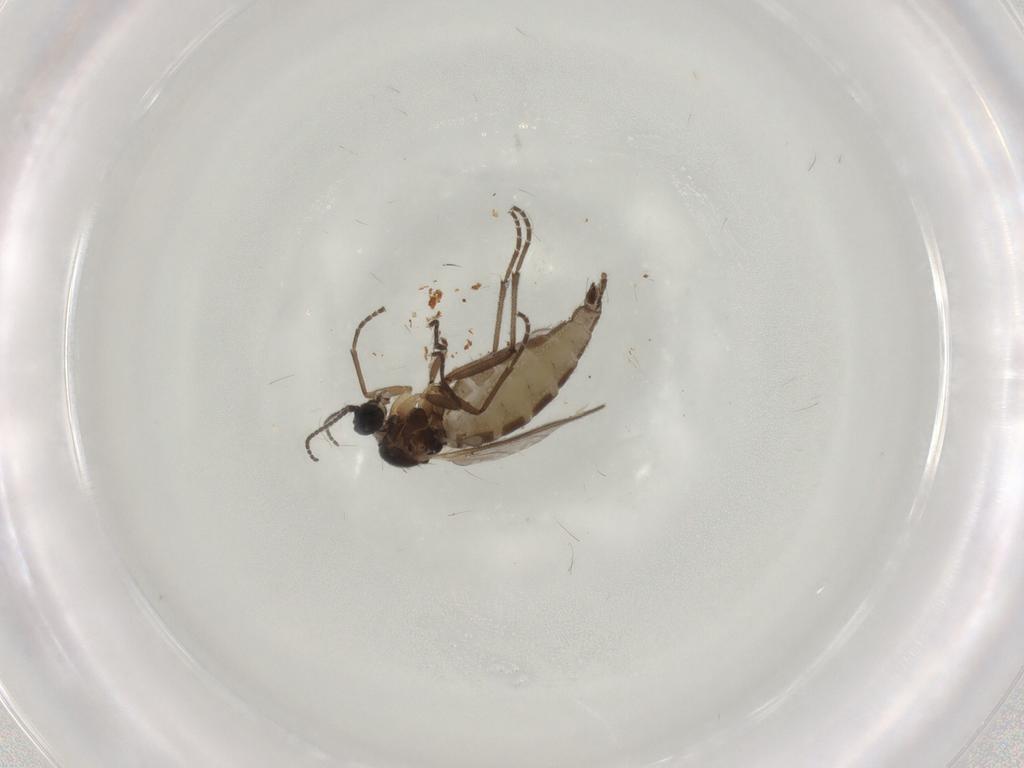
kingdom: Animalia
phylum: Arthropoda
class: Insecta
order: Diptera
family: Chironomidae
